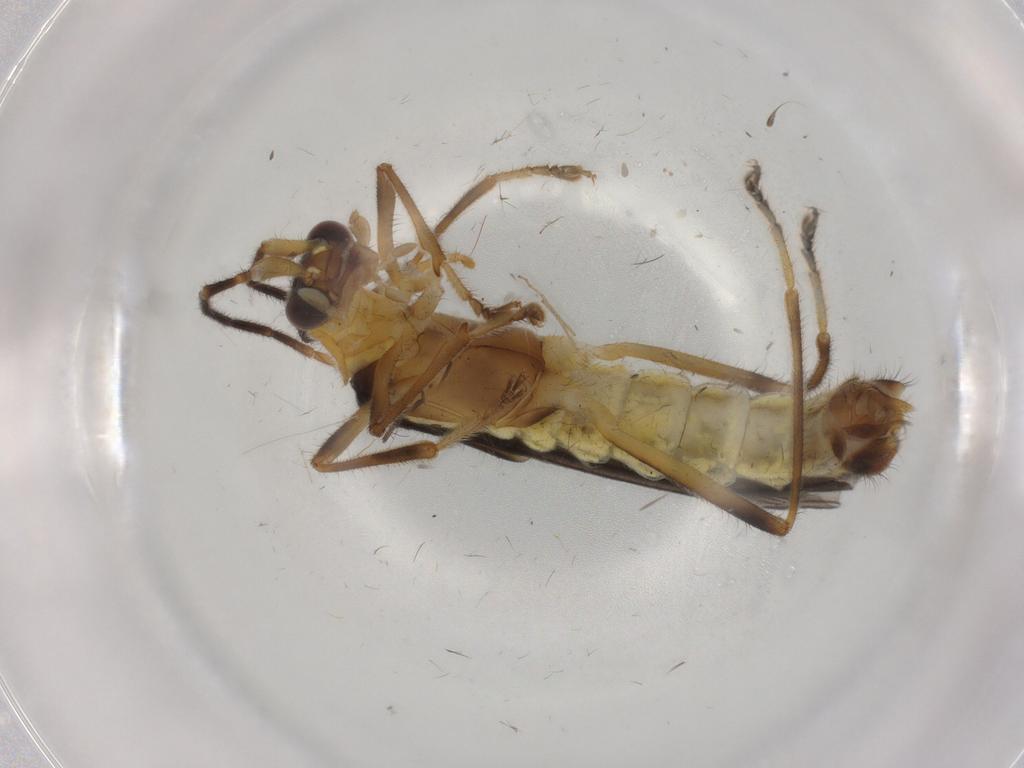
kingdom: Animalia
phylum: Arthropoda
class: Insecta
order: Coleoptera
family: Cantharidae
